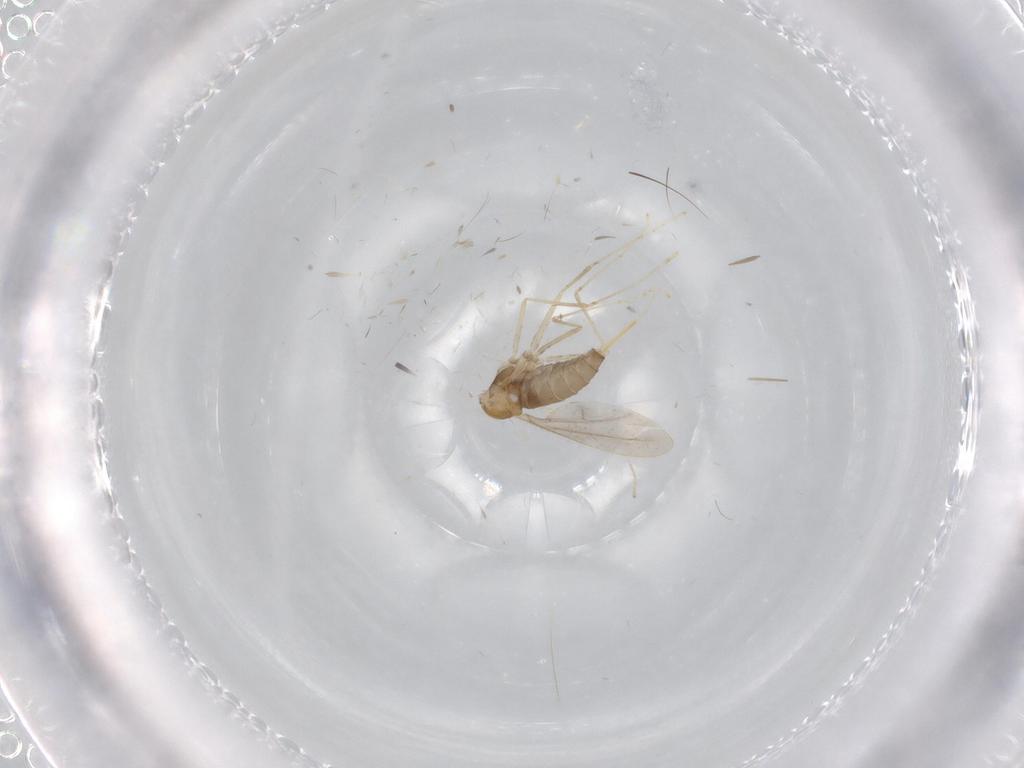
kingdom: Animalia
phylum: Arthropoda
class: Insecta
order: Diptera
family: Cecidomyiidae
